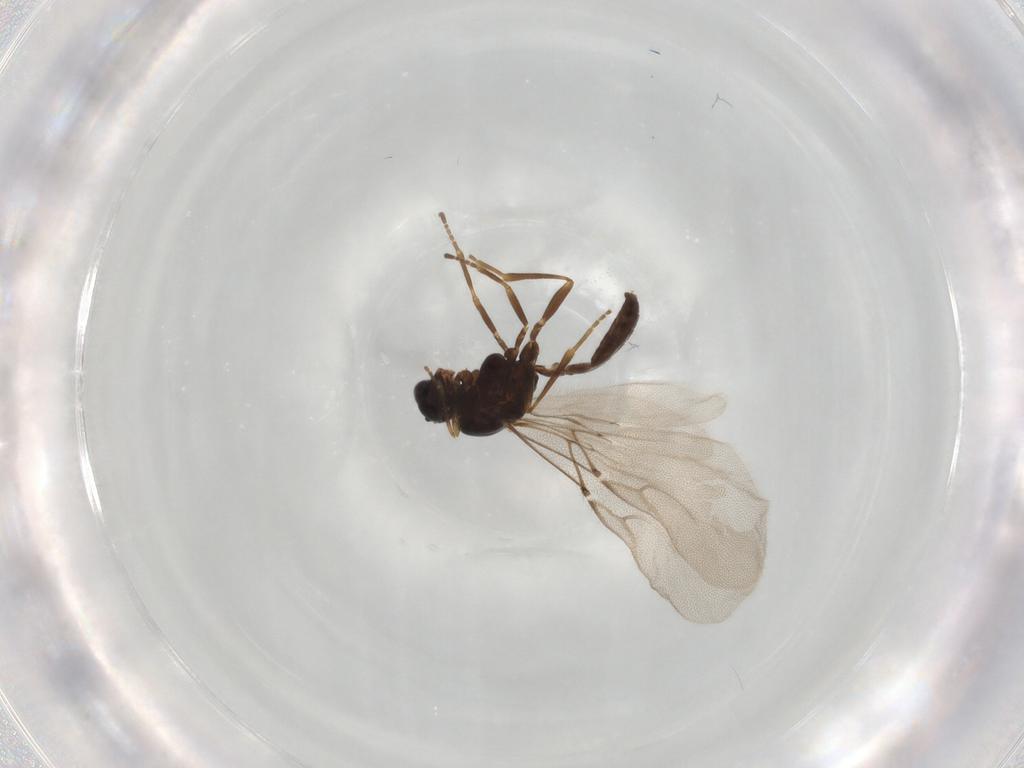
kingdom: Animalia
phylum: Arthropoda
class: Insecta
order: Hymenoptera
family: Braconidae
